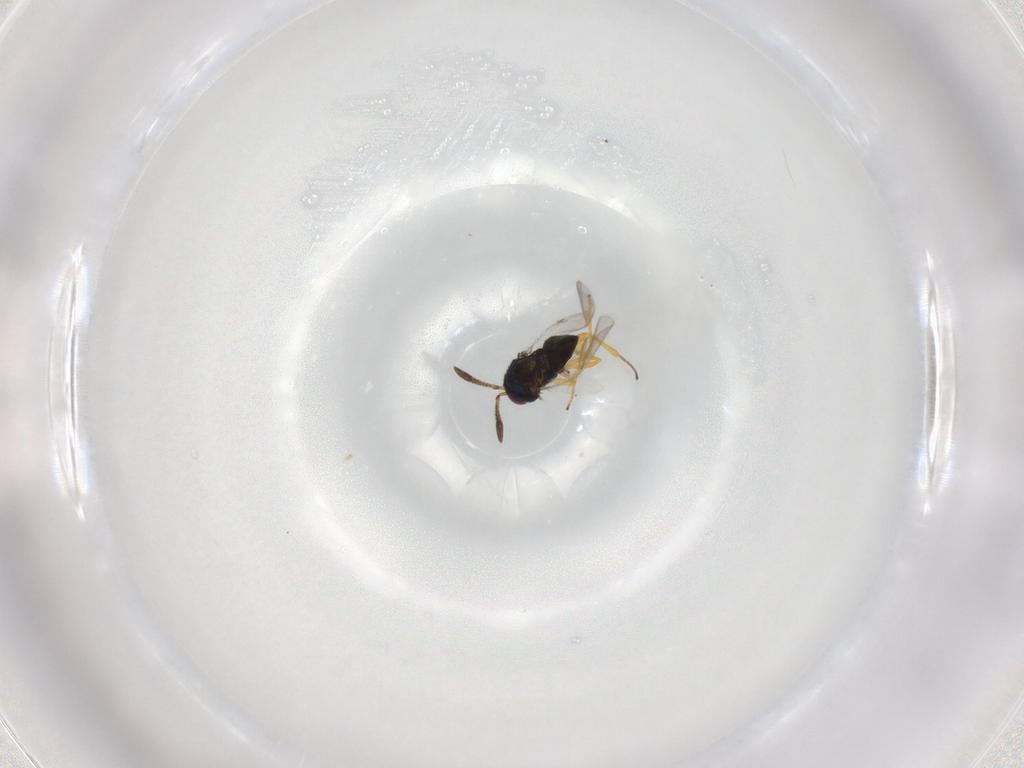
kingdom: Animalia
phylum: Arthropoda
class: Insecta
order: Hymenoptera
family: Encyrtidae
